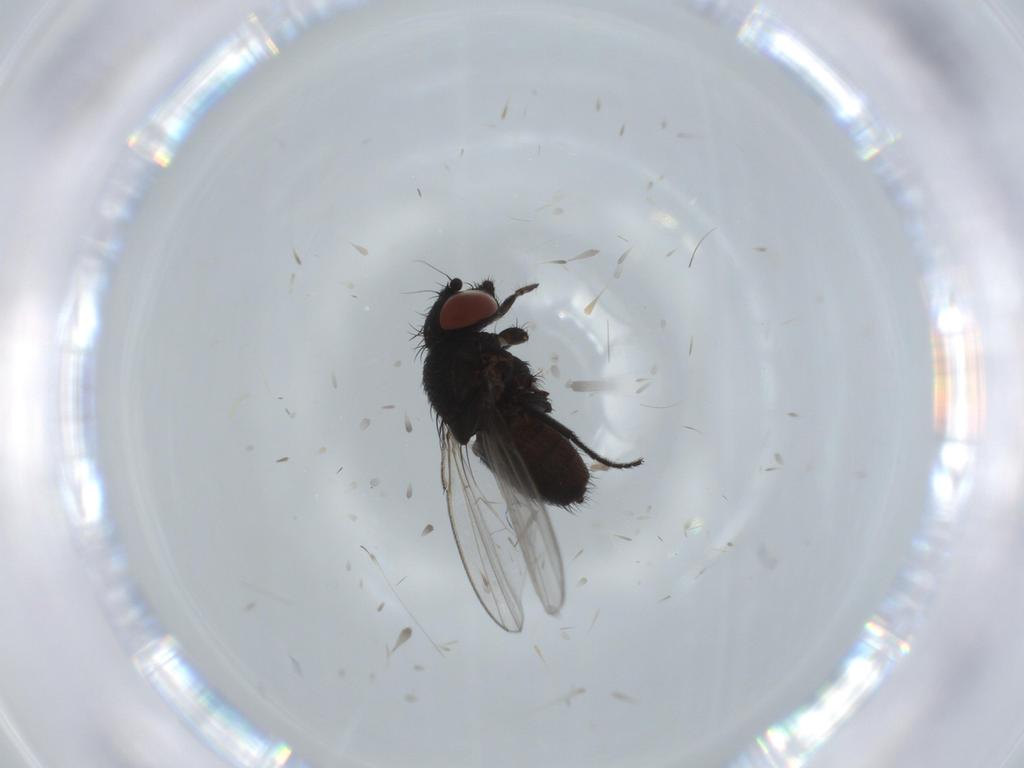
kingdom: Animalia
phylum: Arthropoda
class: Insecta
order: Diptera
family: Milichiidae
